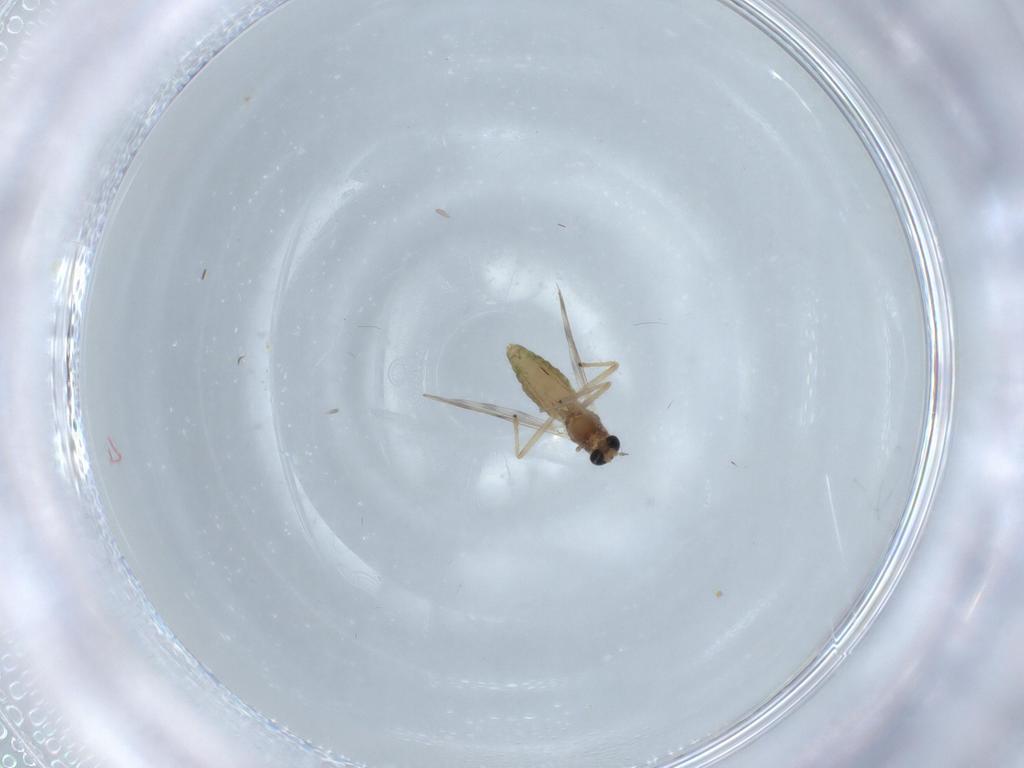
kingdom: Animalia
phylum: Arthropoda
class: Insecta
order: Diptera
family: Chironomidae
